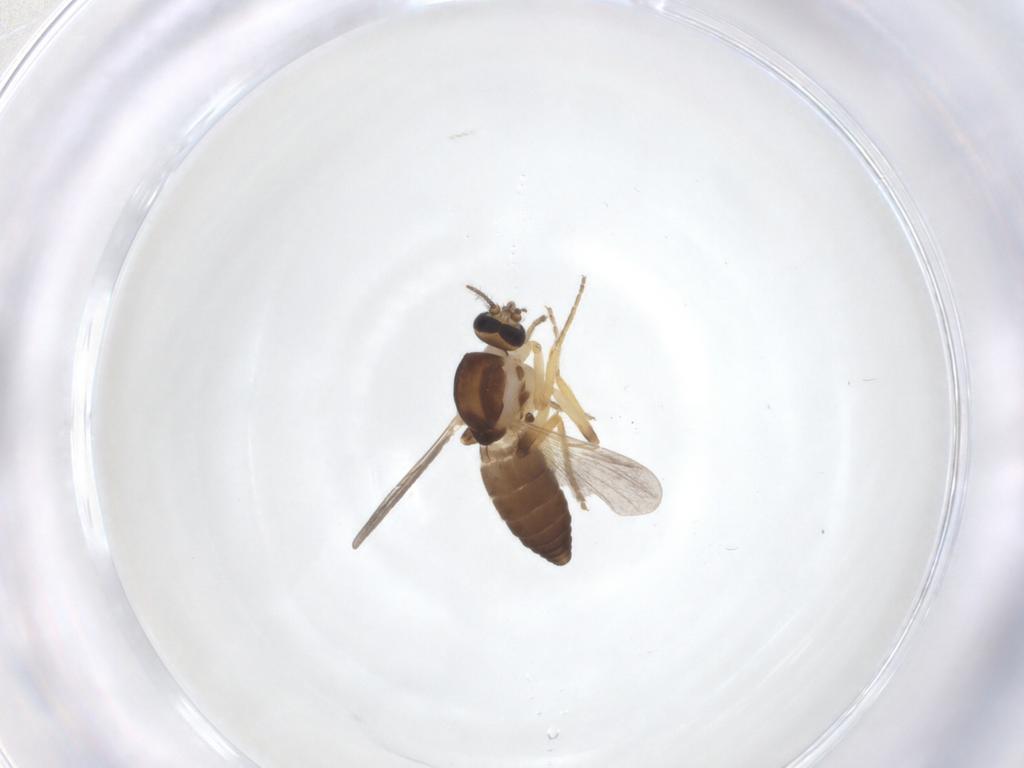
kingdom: Animalia
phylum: Arthropoda
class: Insecta
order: Diptera
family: Ceratopogonidae
